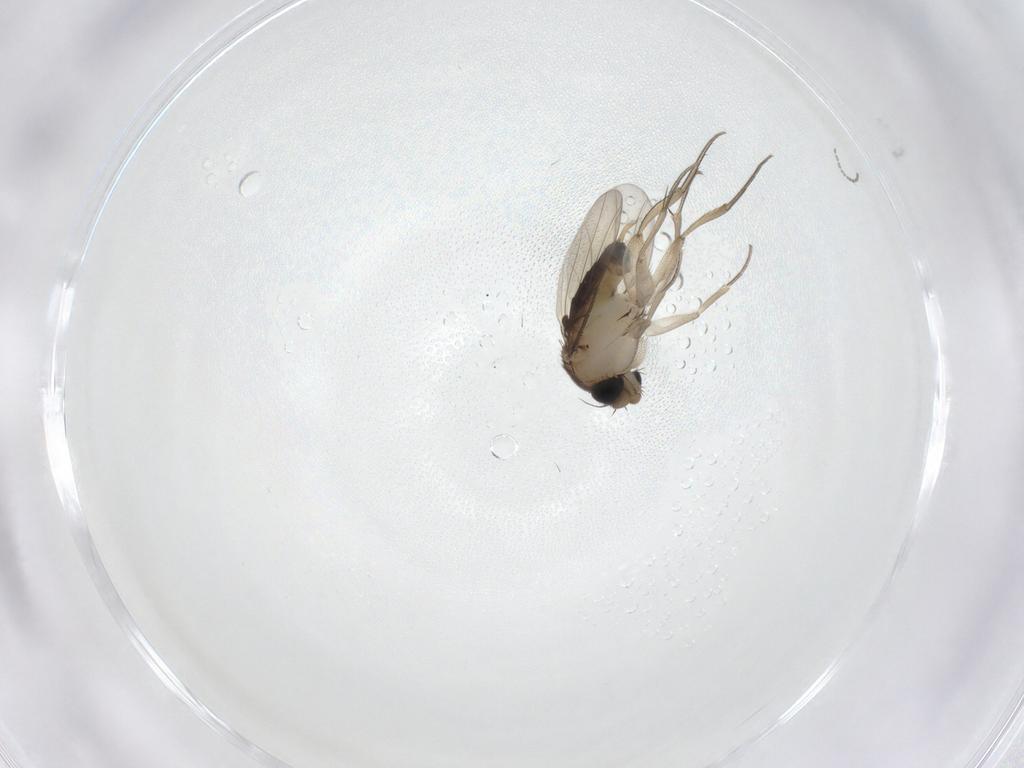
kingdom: Animalia
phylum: Arthropoda
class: Insecta
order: Diptera
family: Phoridae
